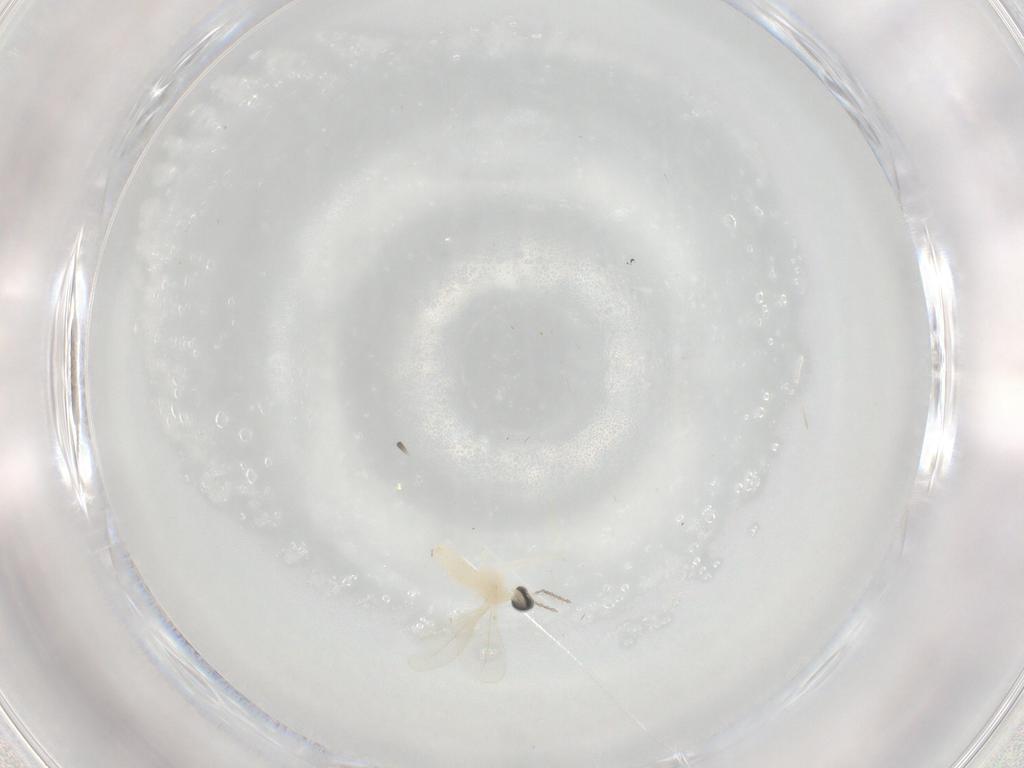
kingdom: Animalia
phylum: Arthropoda
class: Insecta
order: Diptera
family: Cecidomyiidae
